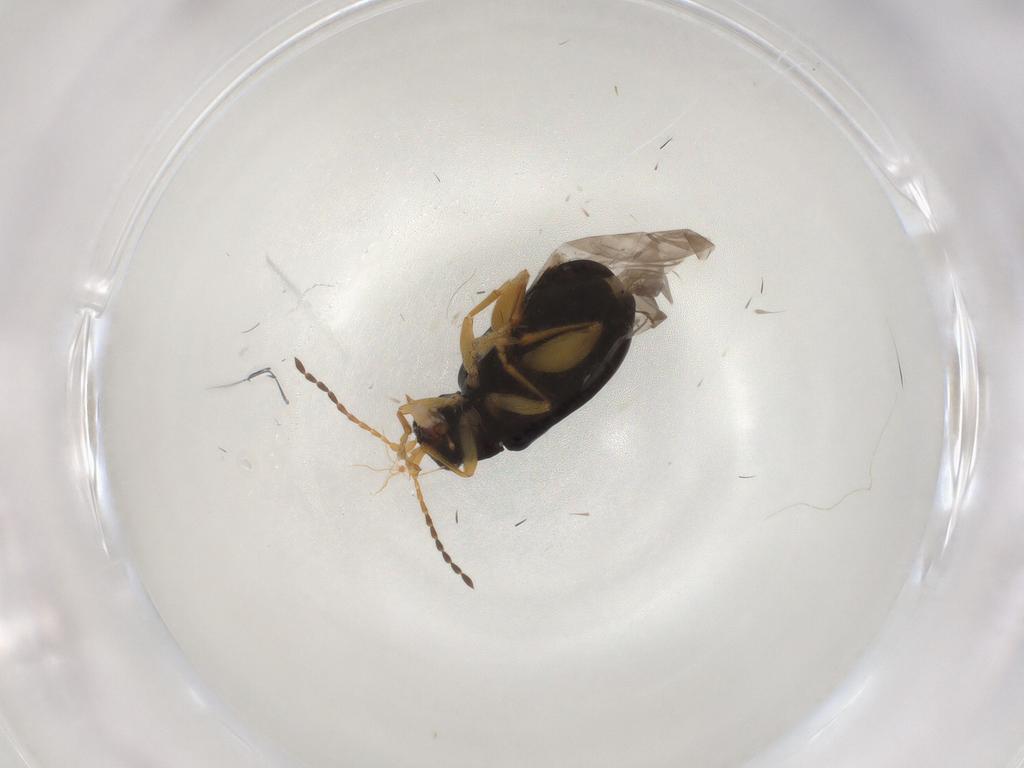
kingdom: Animalia
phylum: Arthropoda
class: Insecta
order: Coleoptera
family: Chrysomelidae
